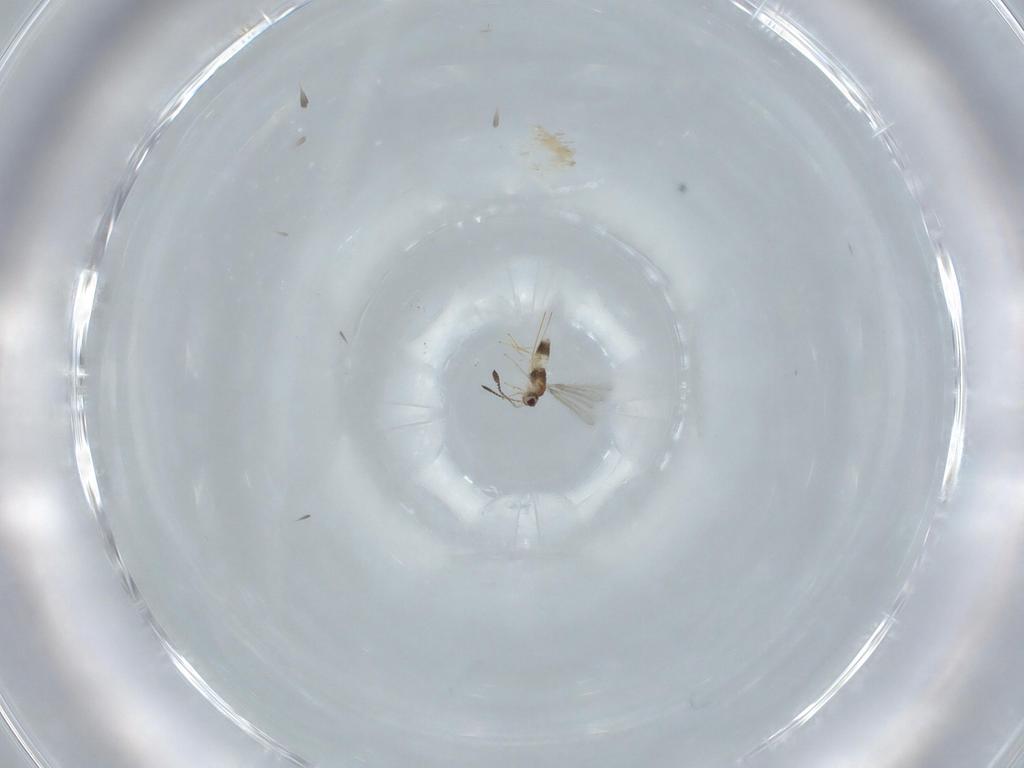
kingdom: Animalia
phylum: Arthropoda
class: Insecta
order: Hymenoptera
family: Mymaridae
